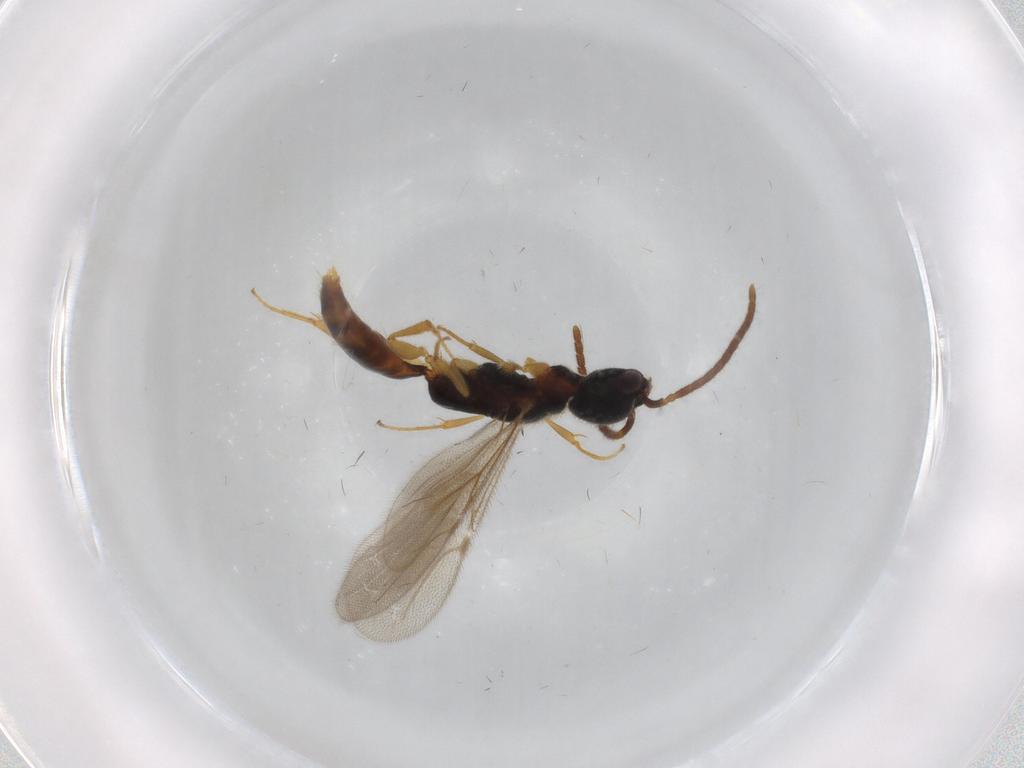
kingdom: Animalia
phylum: Arthropoda
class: Insecta
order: Hymenoptera
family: Bethylidae
